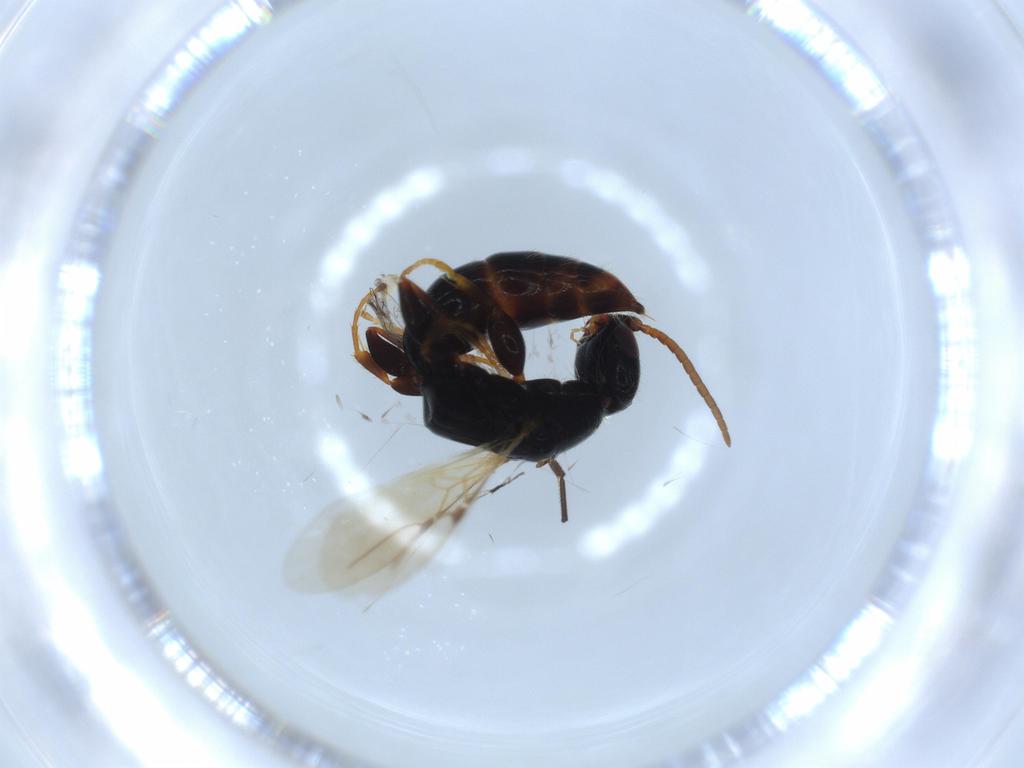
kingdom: Animalia
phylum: Arthropoda
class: Insecta
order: Hymenoptera
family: Bethylidae
